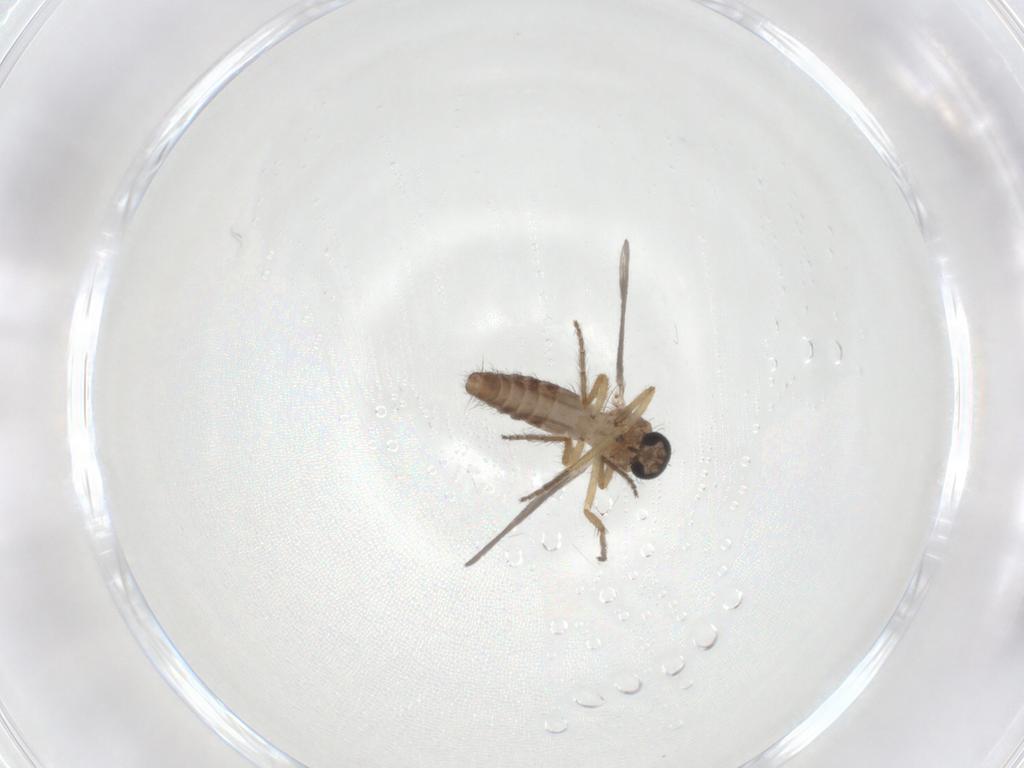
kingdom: Animalia
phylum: Arthropoda
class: Insecta
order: Diptera
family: Ceratopogonidae
